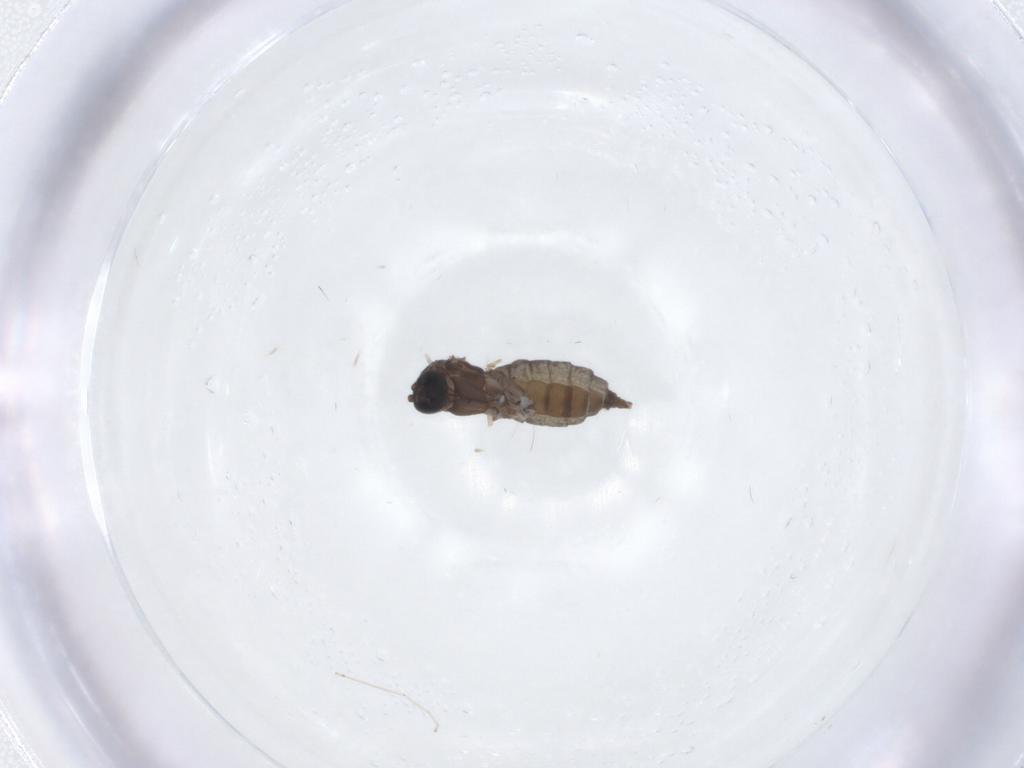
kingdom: Animalia
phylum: Arthropoda
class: Insecta
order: Diptera
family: Sciaridae
